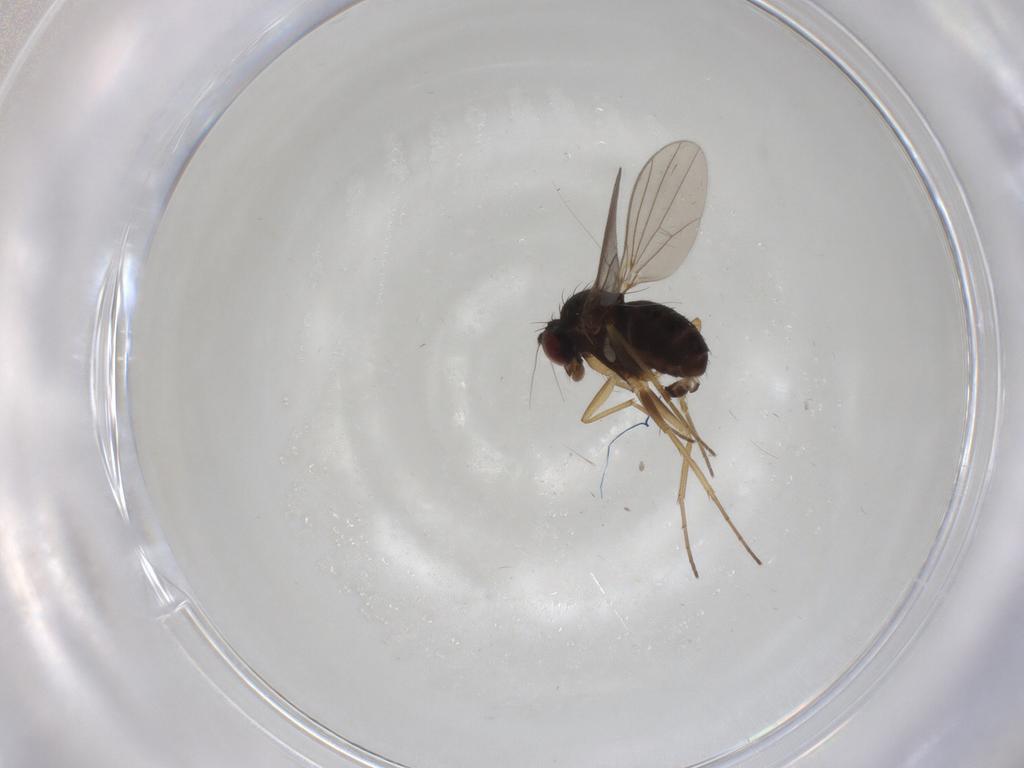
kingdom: Animalia
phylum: Arthropoda
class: Insecta
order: Diptera
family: Dolichopodidae
